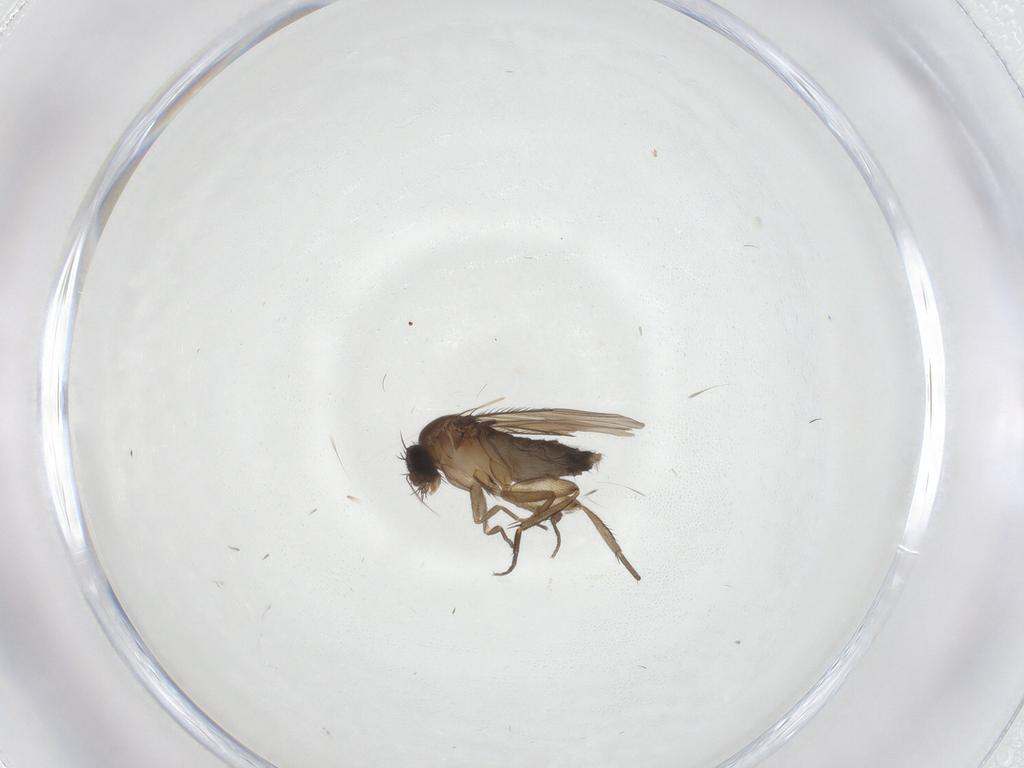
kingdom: Animalia
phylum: Arthropoda
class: Insecta
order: Diptera
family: Phoridae
